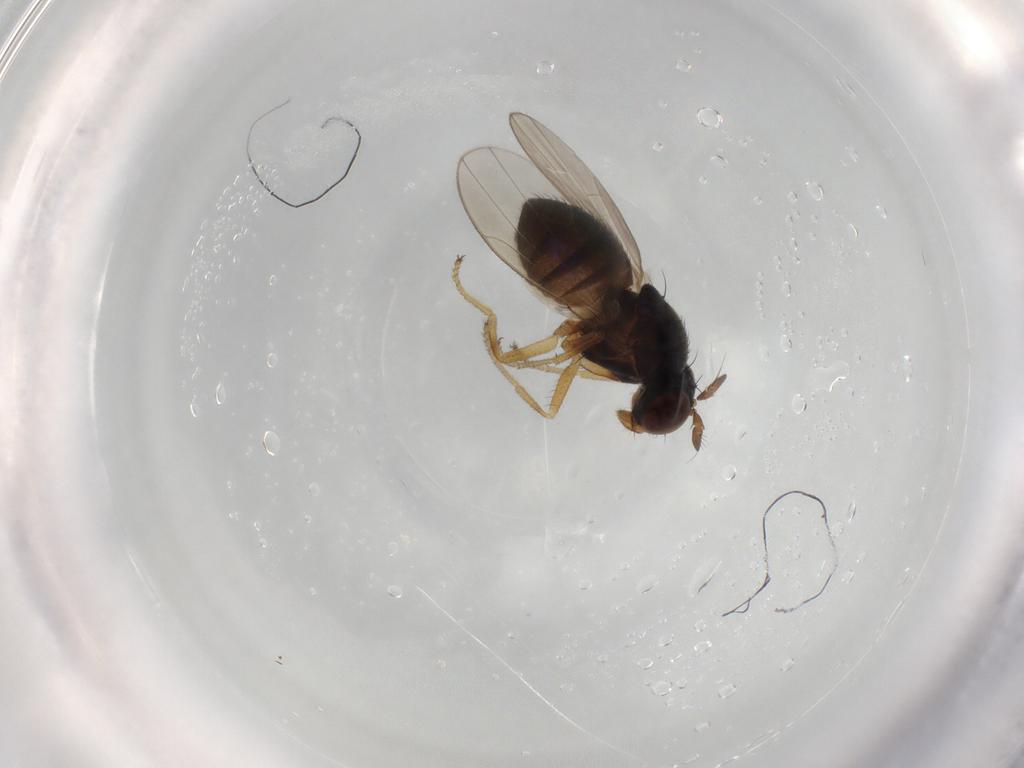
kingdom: Animalia
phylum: Arthropoda
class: Insecta
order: Diptera
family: Ephydridae
